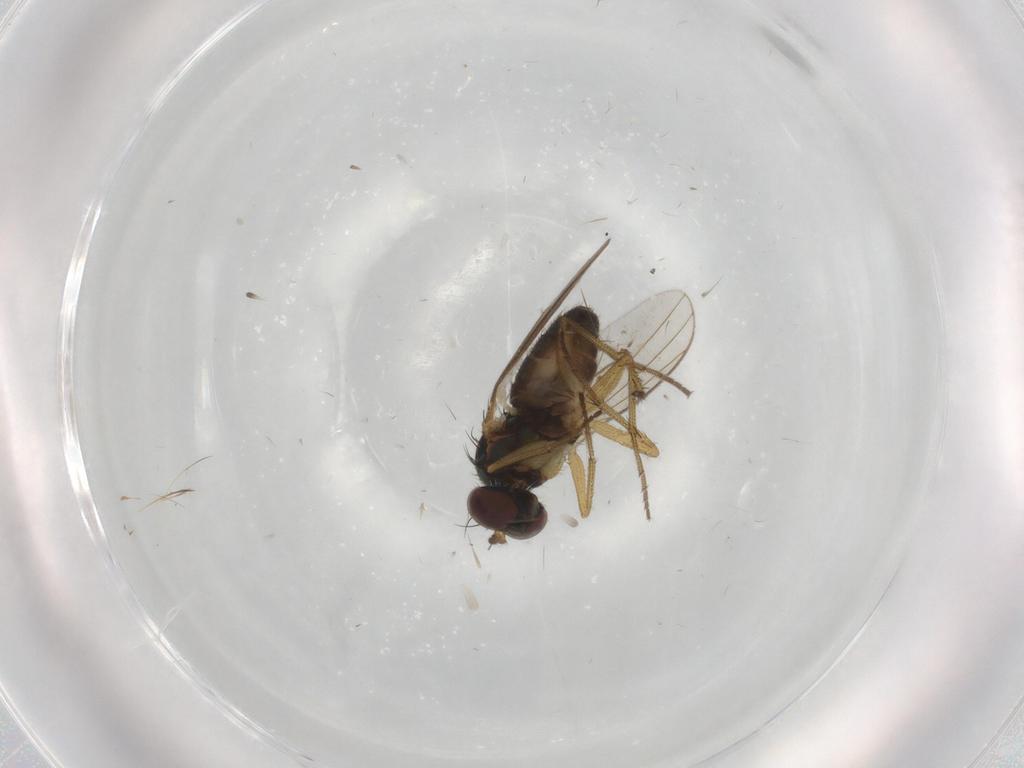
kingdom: Animalia
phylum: Arthropoda
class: Insecta
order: Diptera
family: Dolichopodidae
